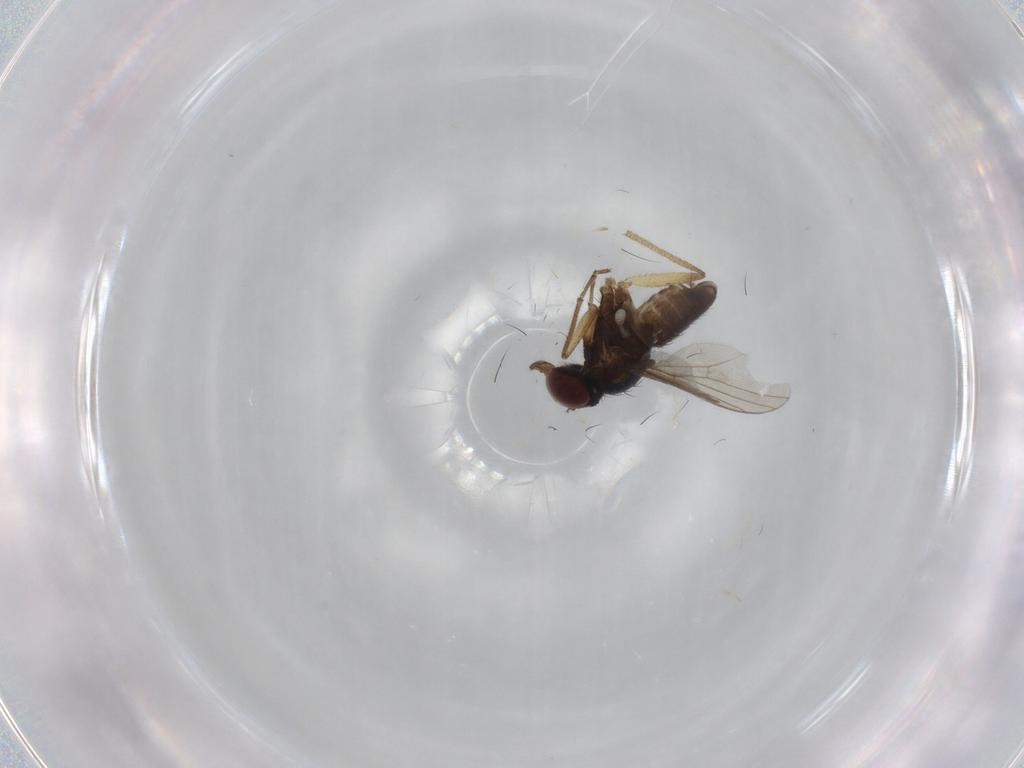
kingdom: Animalia
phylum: Arthropoda
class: Insecta
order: Diptera
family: Dolichopodidae
